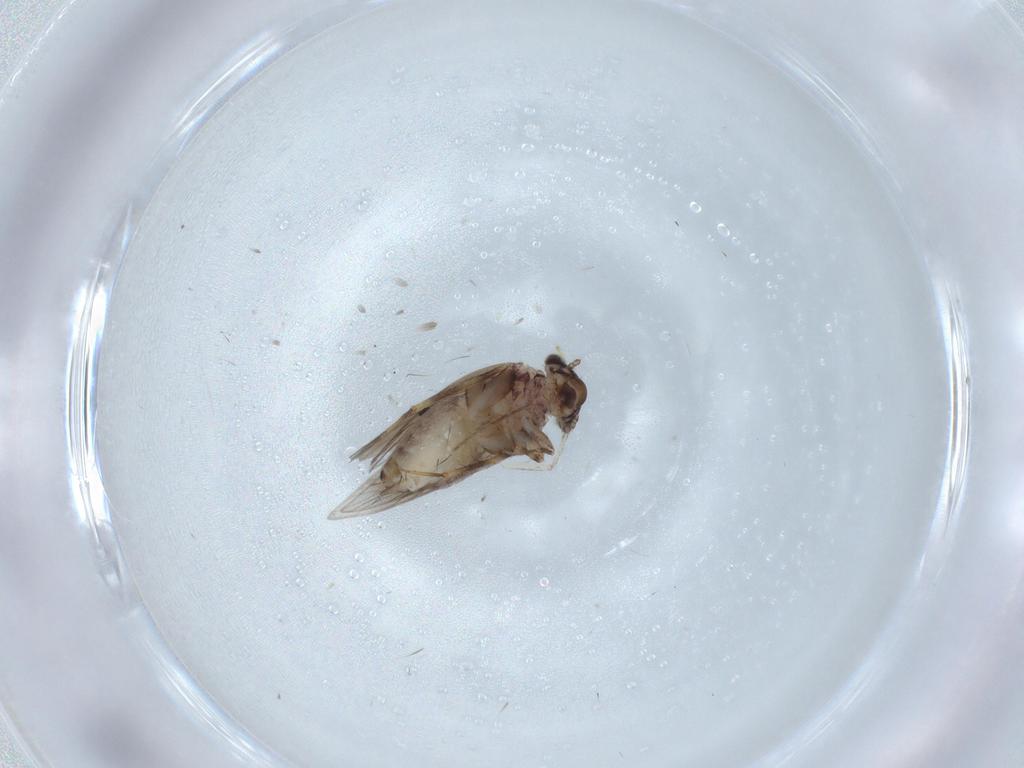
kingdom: Animalia
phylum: Arthropoda
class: Insecta
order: Psocodea
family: Lepidopsocidae
